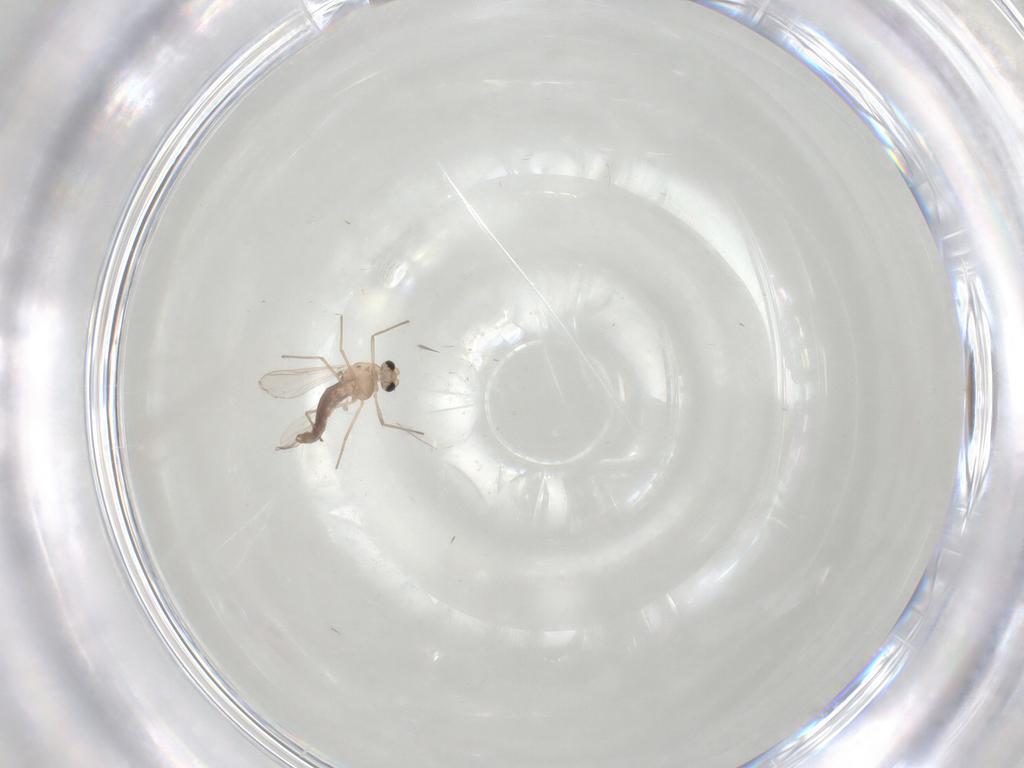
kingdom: Animalia
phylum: Arthropoda
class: Insecta
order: Diptera
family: Chironomidae
